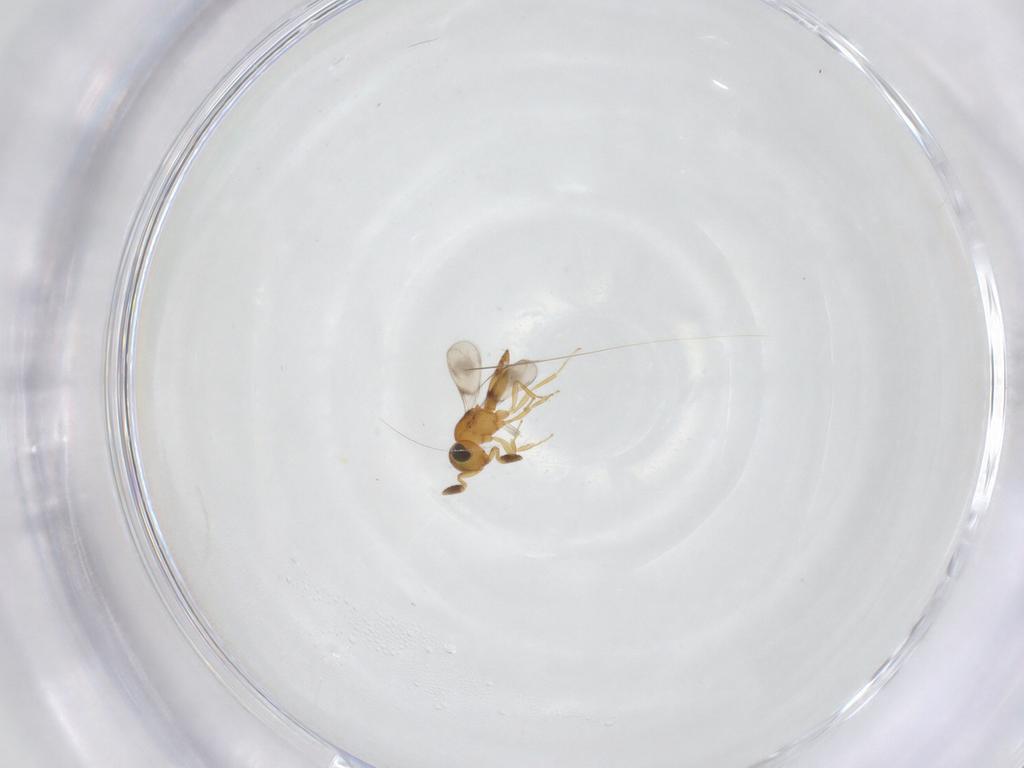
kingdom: Animalia
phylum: Arthropoda
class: Insecta
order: Hymenoptera
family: Scelionidae
